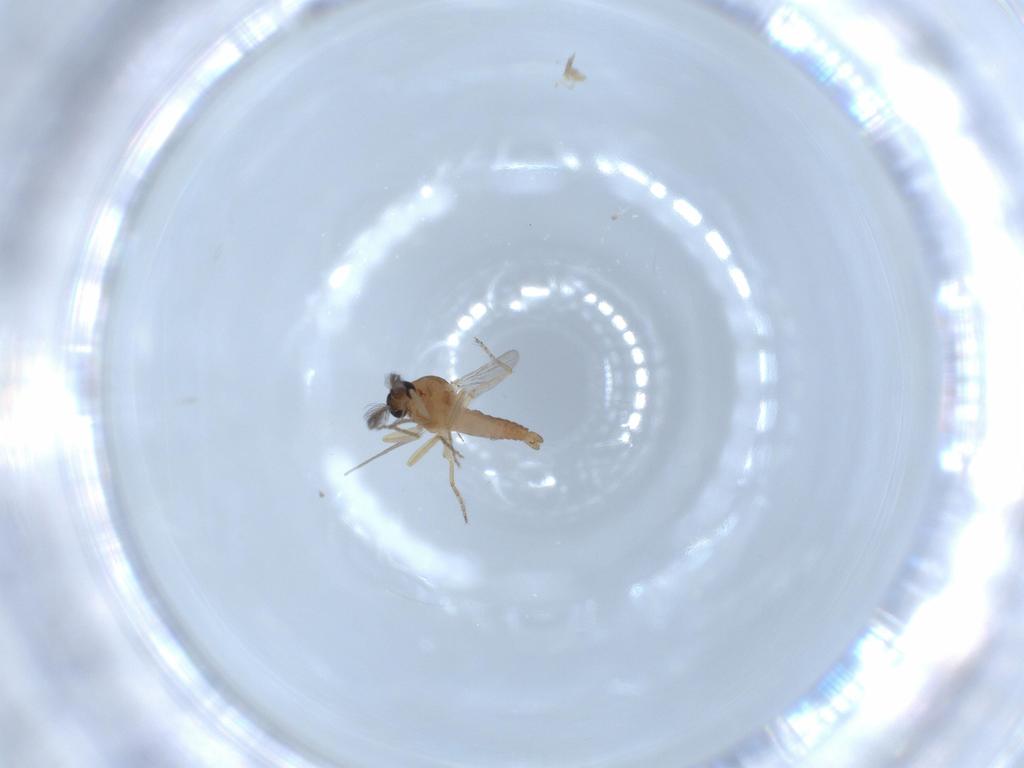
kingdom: Animalia
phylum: Arthropoda
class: Insecta
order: Diptera
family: Ceratopogonidae
